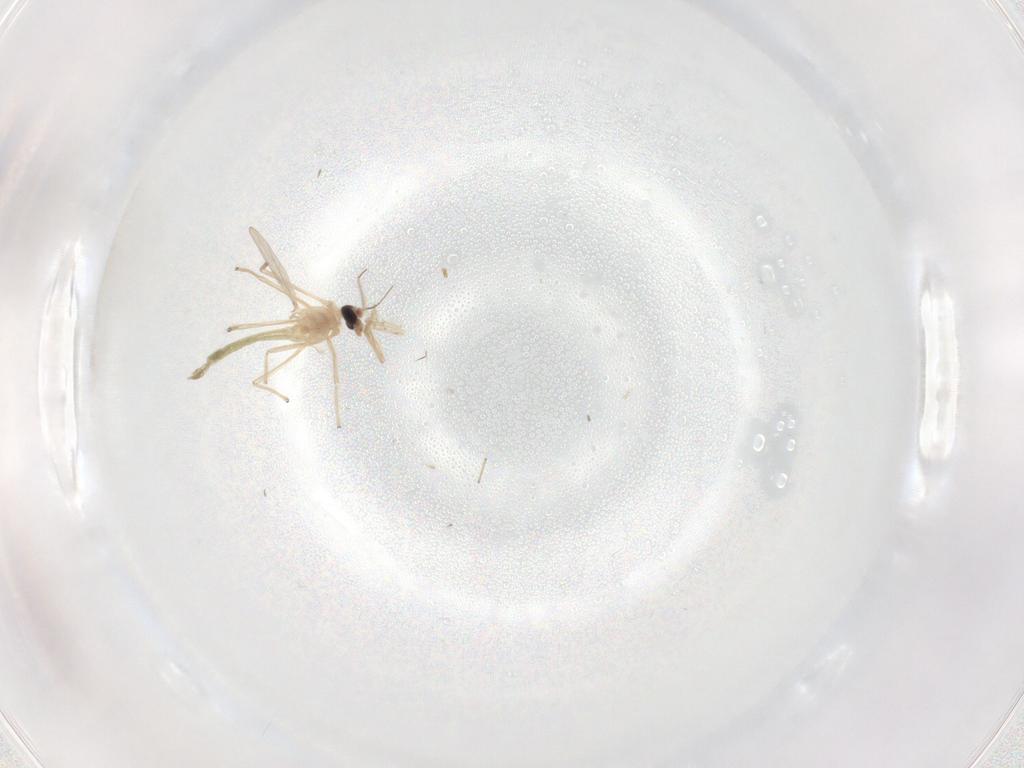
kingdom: Animalia
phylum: Arthropoda
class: Insecta
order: Diptera
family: Chironomidae
